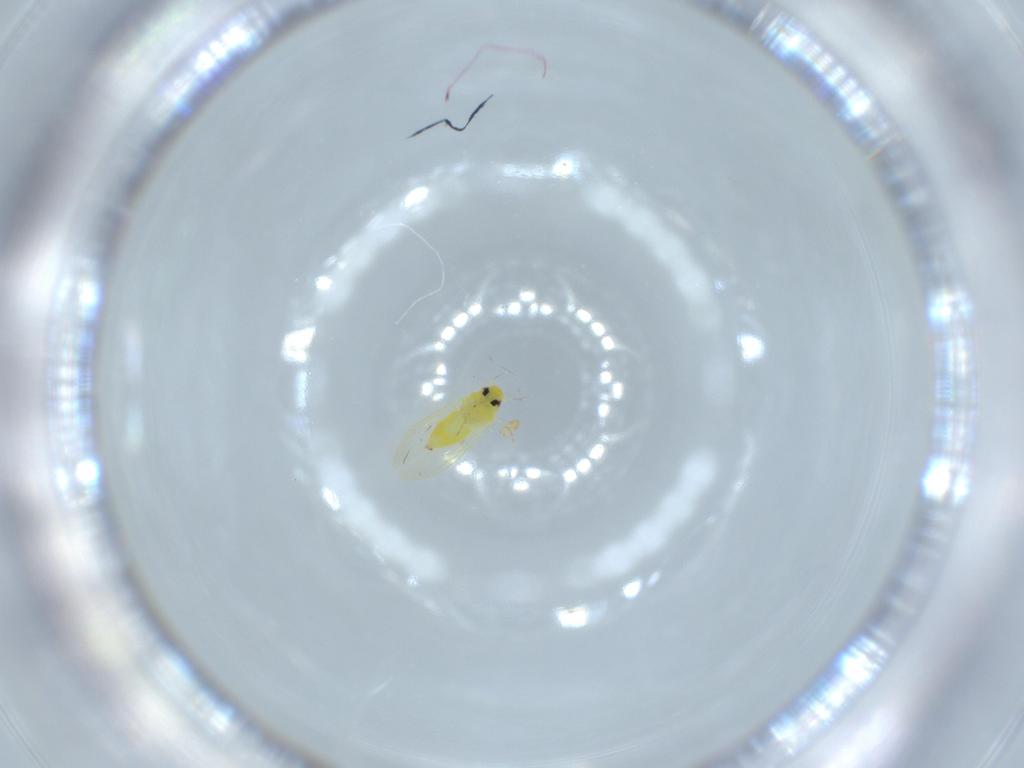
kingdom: Animalia
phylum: Arthropoda
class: Insecta
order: Hemiptera
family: Aleyrodidae
